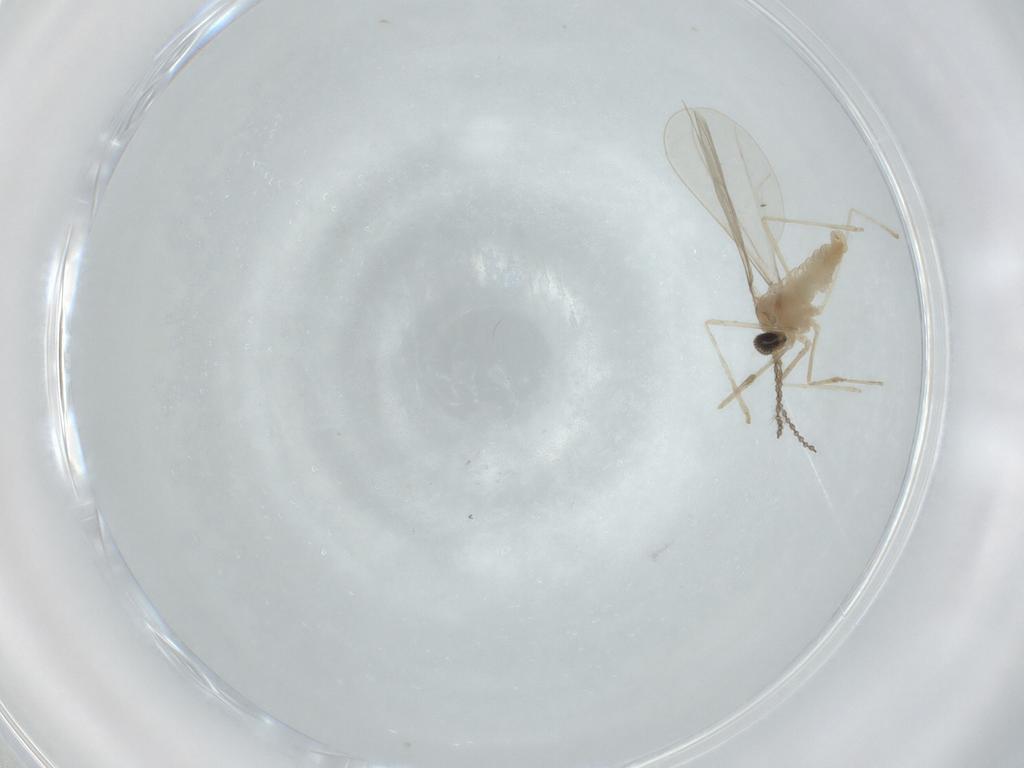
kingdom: Animalia
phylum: Arthropoda
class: Insecta
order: Diptera
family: Cecidomyiidae
